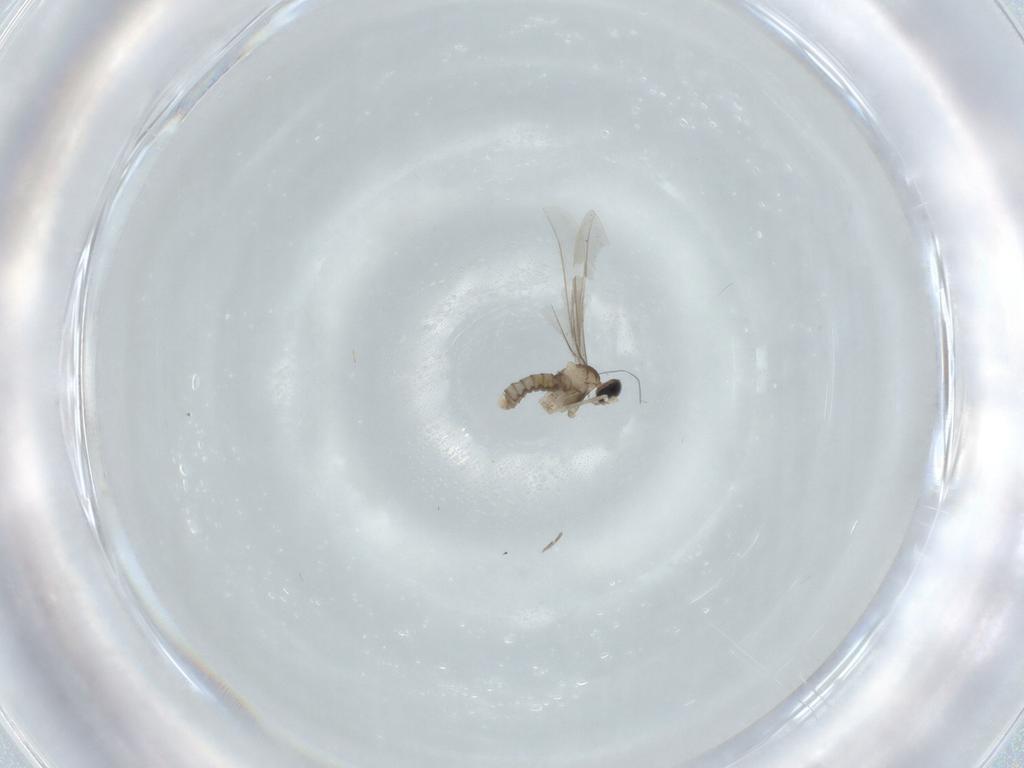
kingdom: Animalia
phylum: Arthropoda
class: Insecta
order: Diptera
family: Cecidomyiidae
